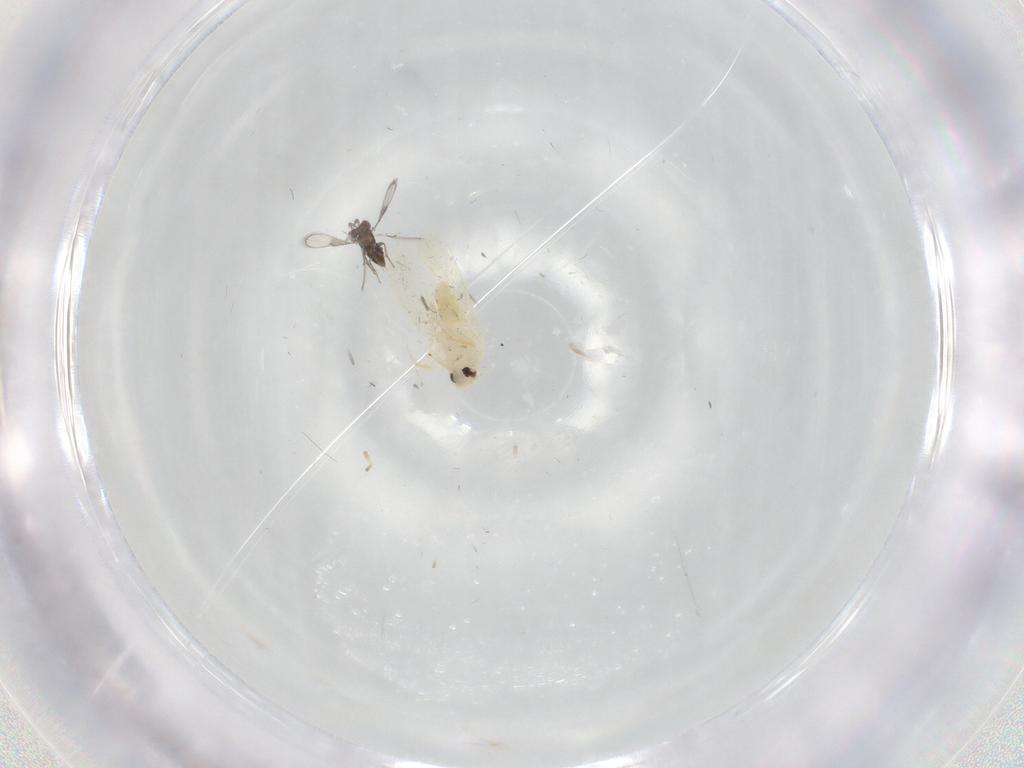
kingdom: Animalia
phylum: Arthropoda
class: Insecta
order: Hemiptera
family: Aleyrodidae
